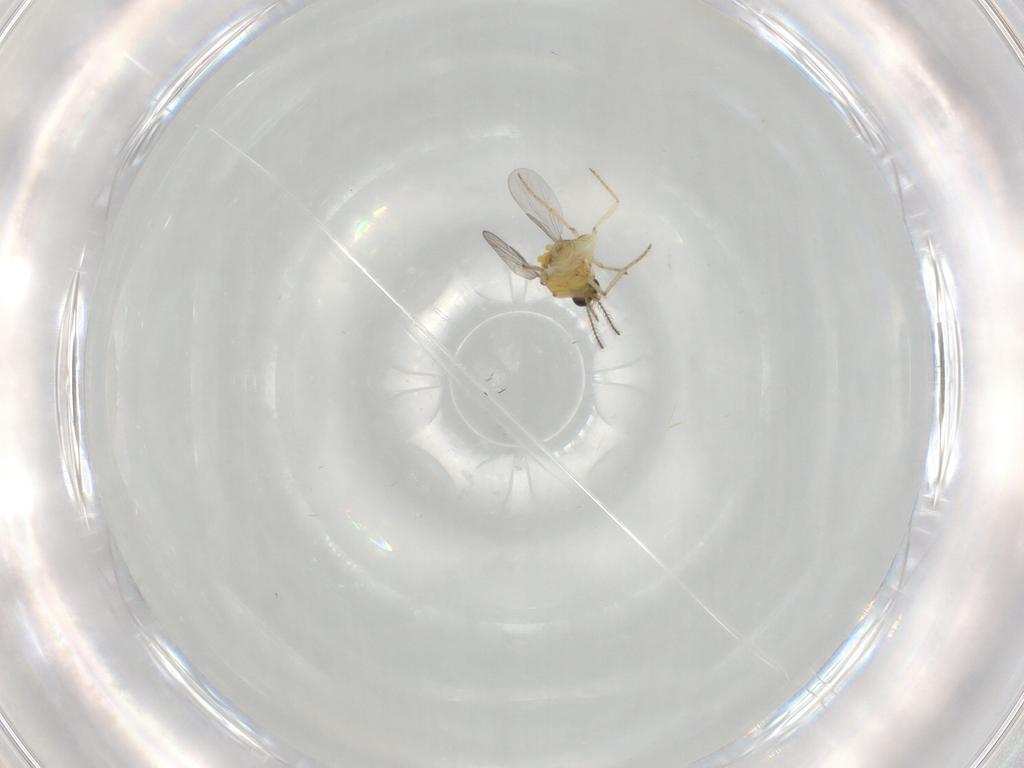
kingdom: Animalia
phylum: Arthropoda
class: Insecta
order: Diptera
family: Ceratopogonidae
